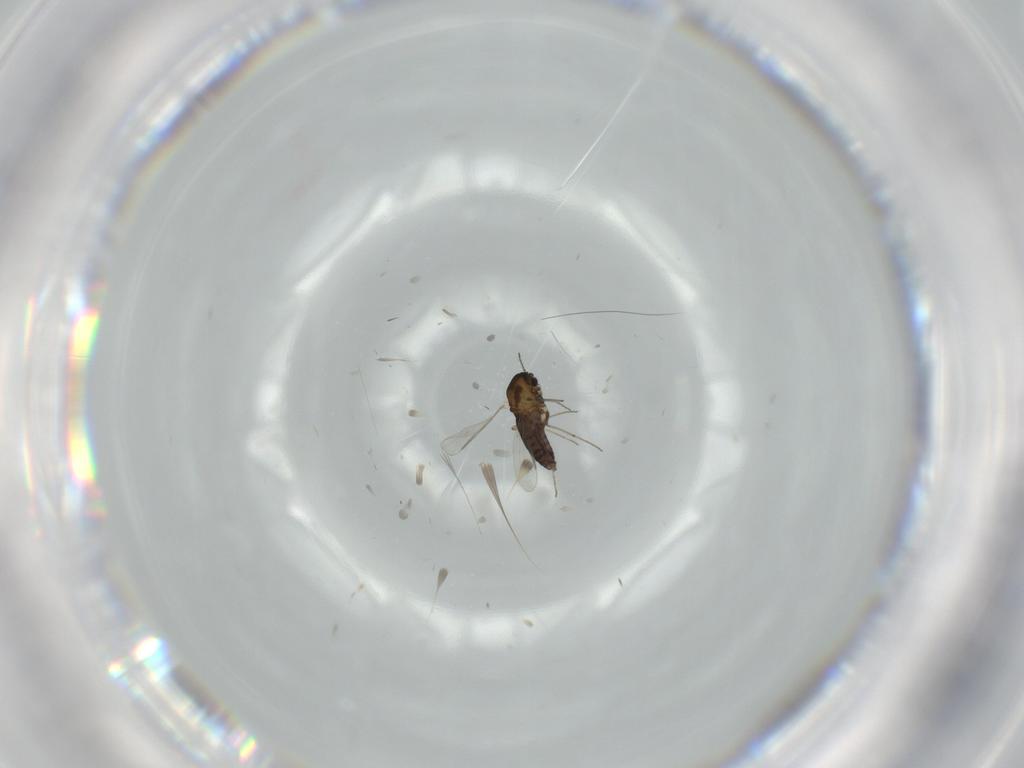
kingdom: Animalia
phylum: Arthropoda
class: Insecta
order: Diptera
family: Chironomidae
